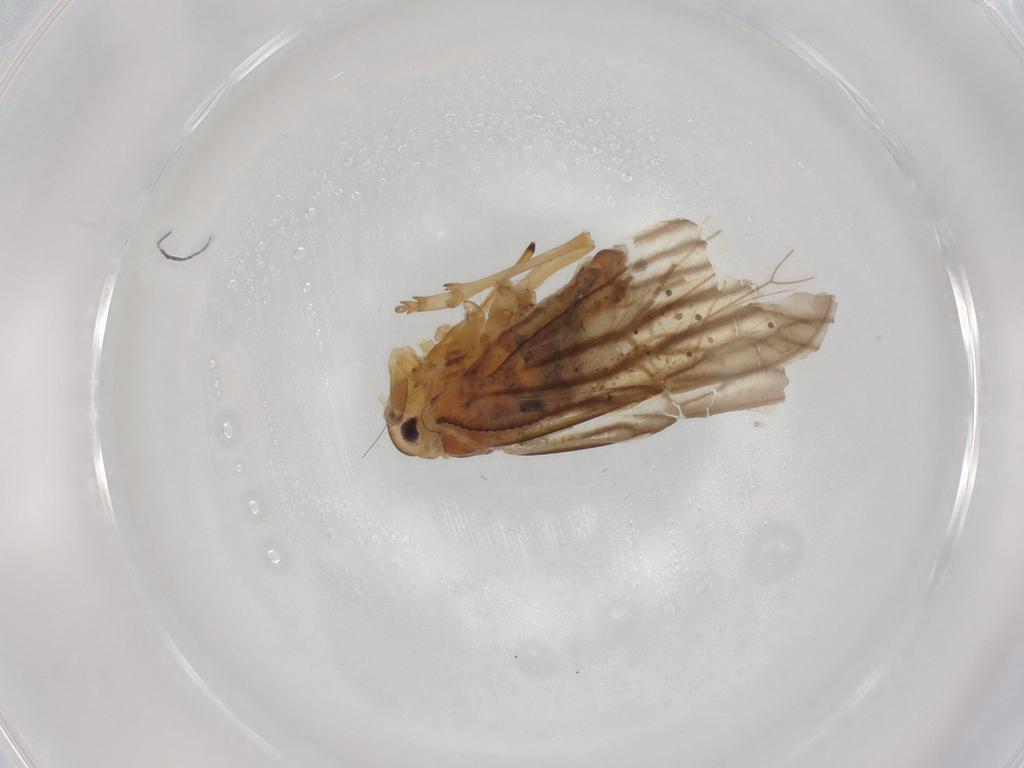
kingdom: Animalia
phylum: Arthropoda
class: Insecta
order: Hemiptera
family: Meenoplidae
